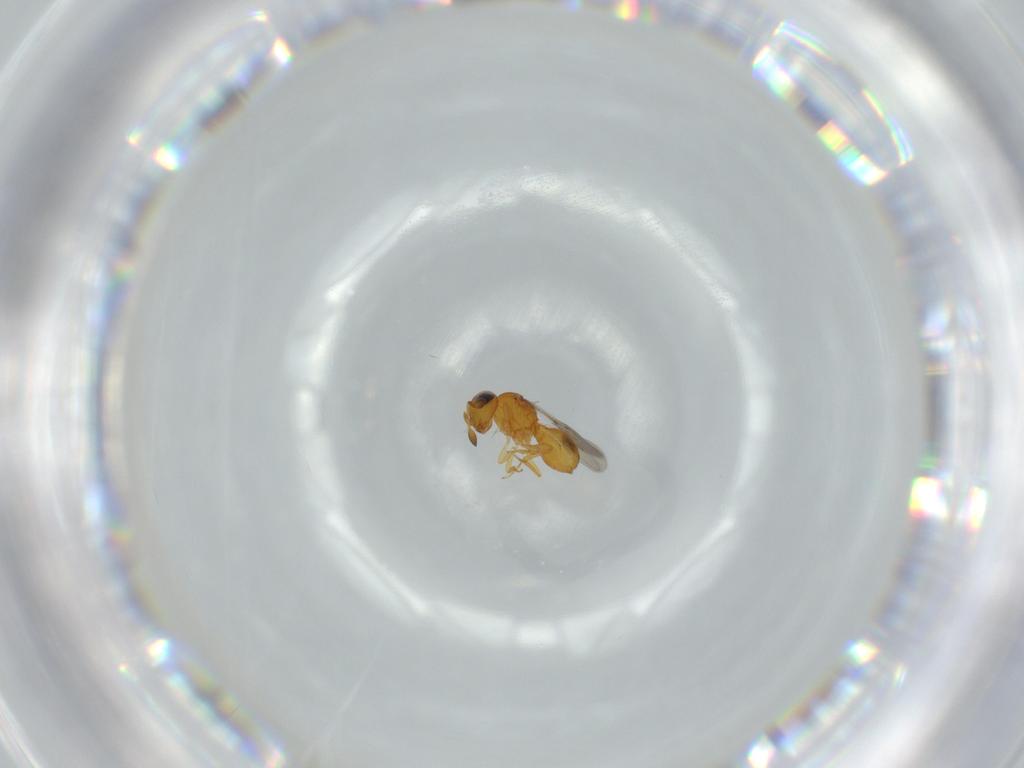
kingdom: Animalia
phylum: Arthropoda
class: Insecta
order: Hymenoptera
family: Scelionidae
